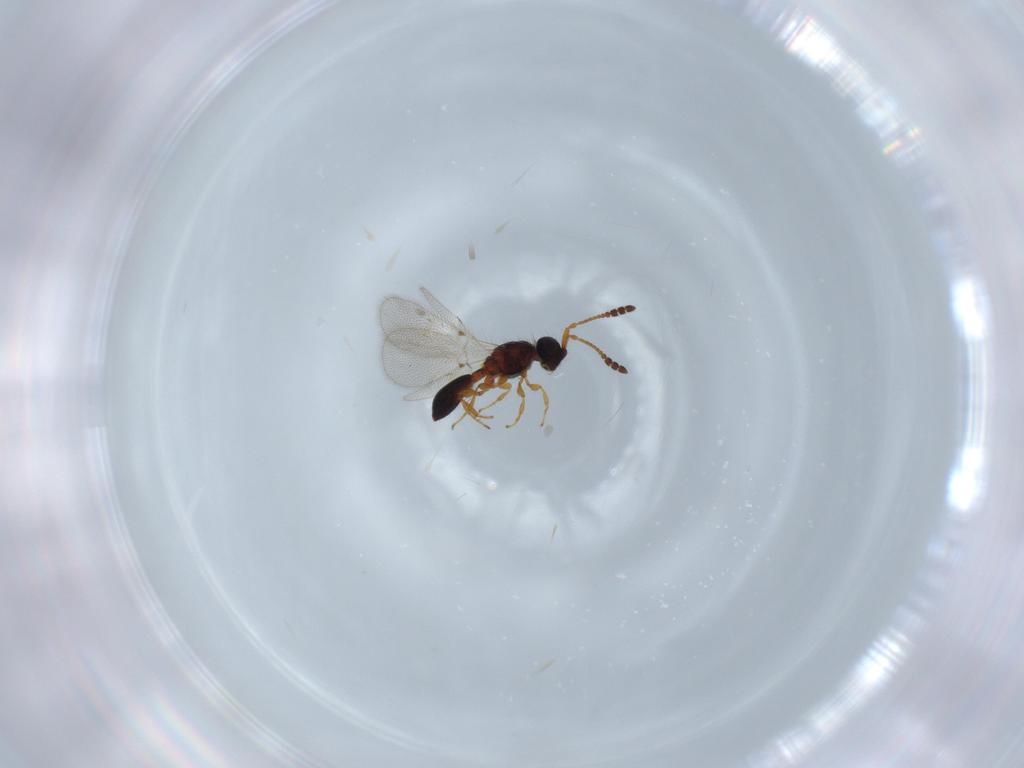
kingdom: Animalia
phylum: Arthropoda
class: Insecta
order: Hymenoptera
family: Diapriidae
